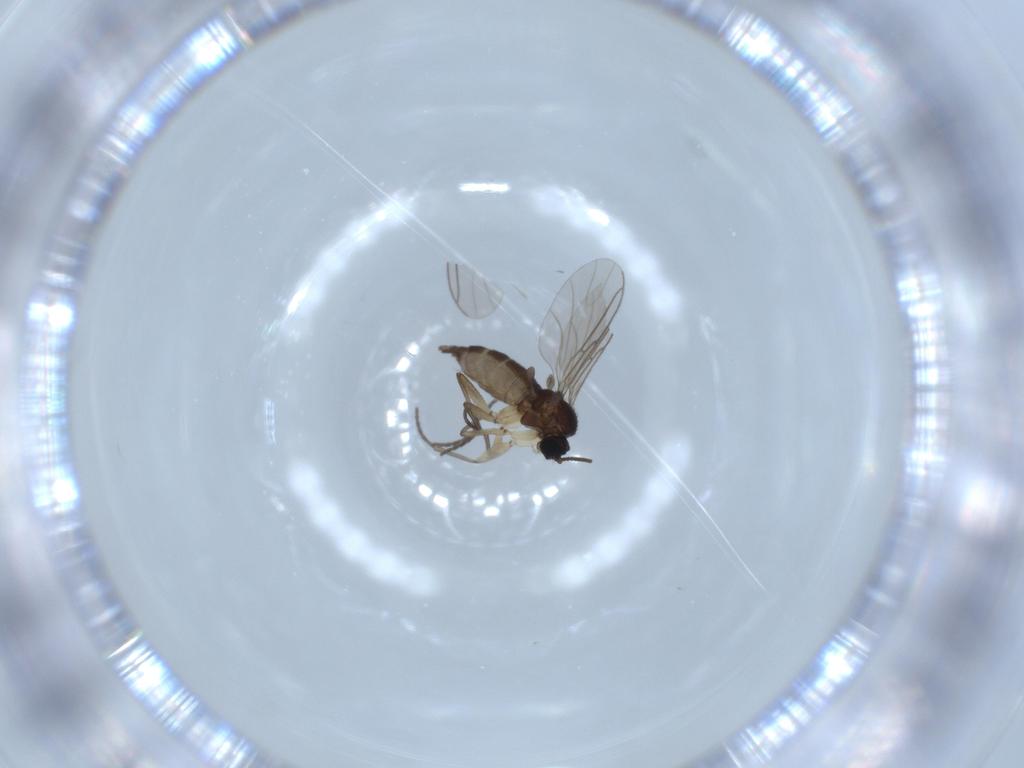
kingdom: Animalia
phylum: Arthropoda
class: Insecta
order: Diptera
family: Sciaridae
